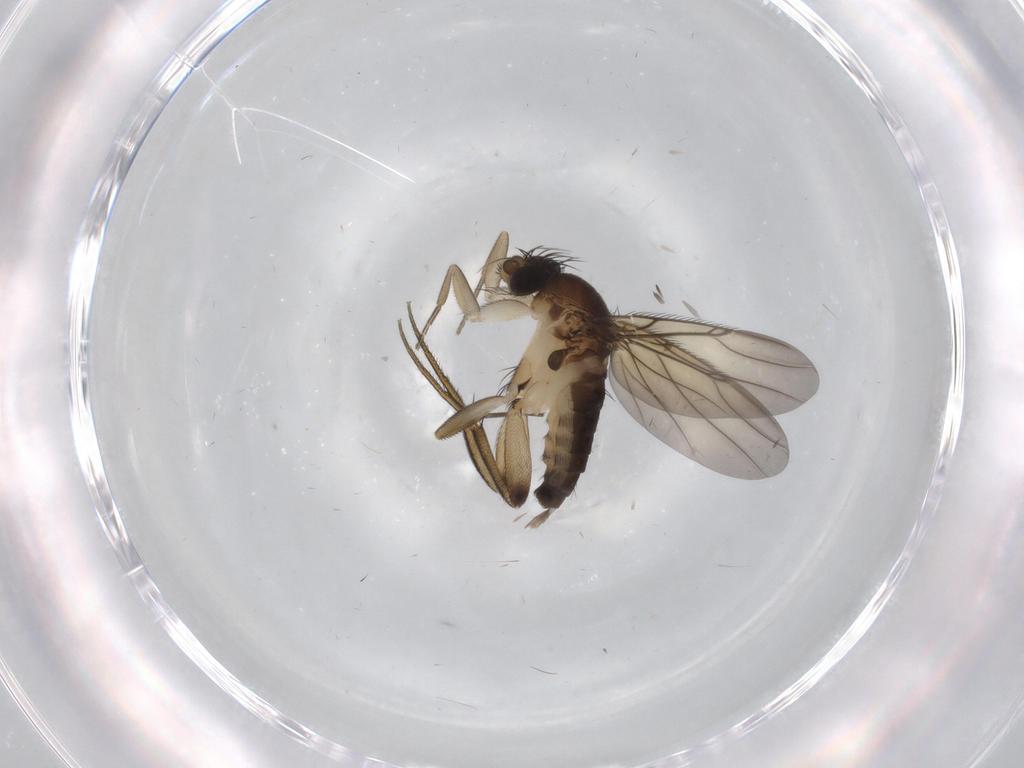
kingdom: Animalia
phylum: Arthropoda
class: Insecta
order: Diptera
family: Phoridae
